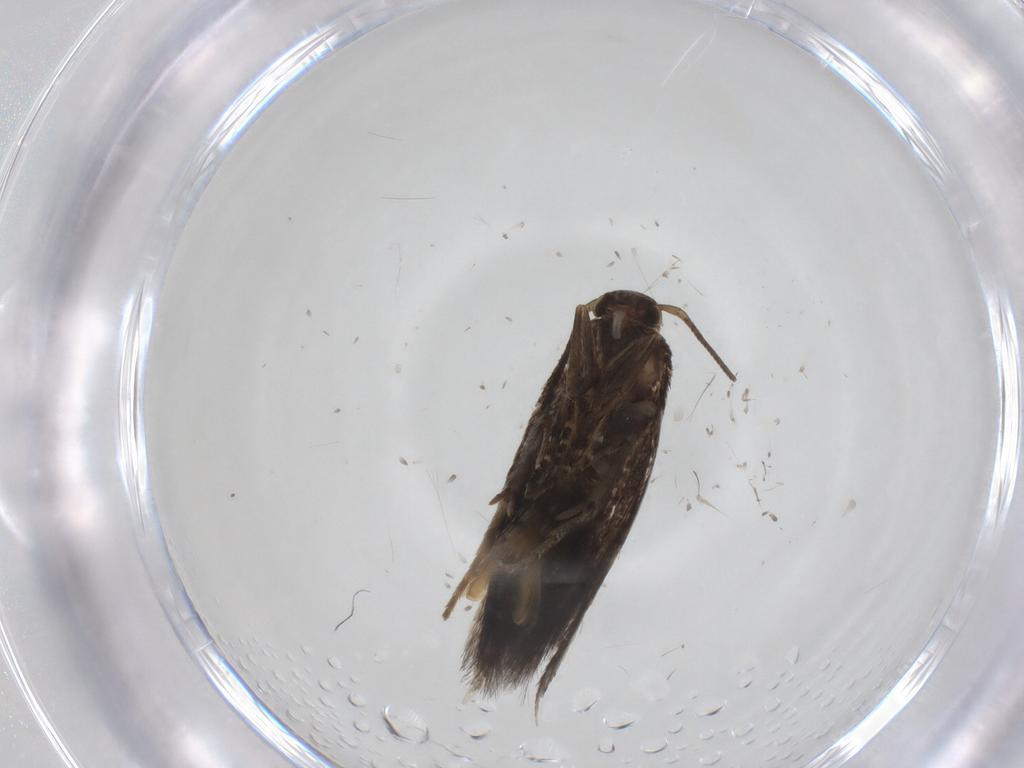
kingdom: Animalia
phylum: Arthropoda
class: Insecta
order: Lepidoptera
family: Elachistidae
